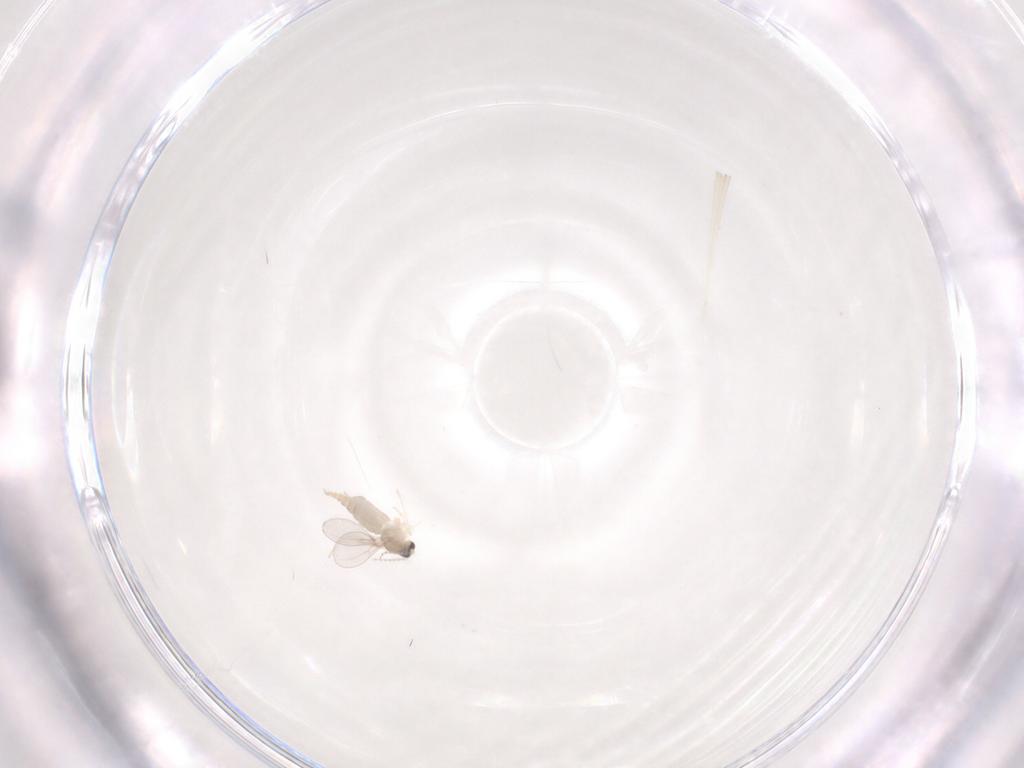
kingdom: Animalia
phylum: Arthropoda
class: Insecta
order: Diptera
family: Cecidomyiidae
